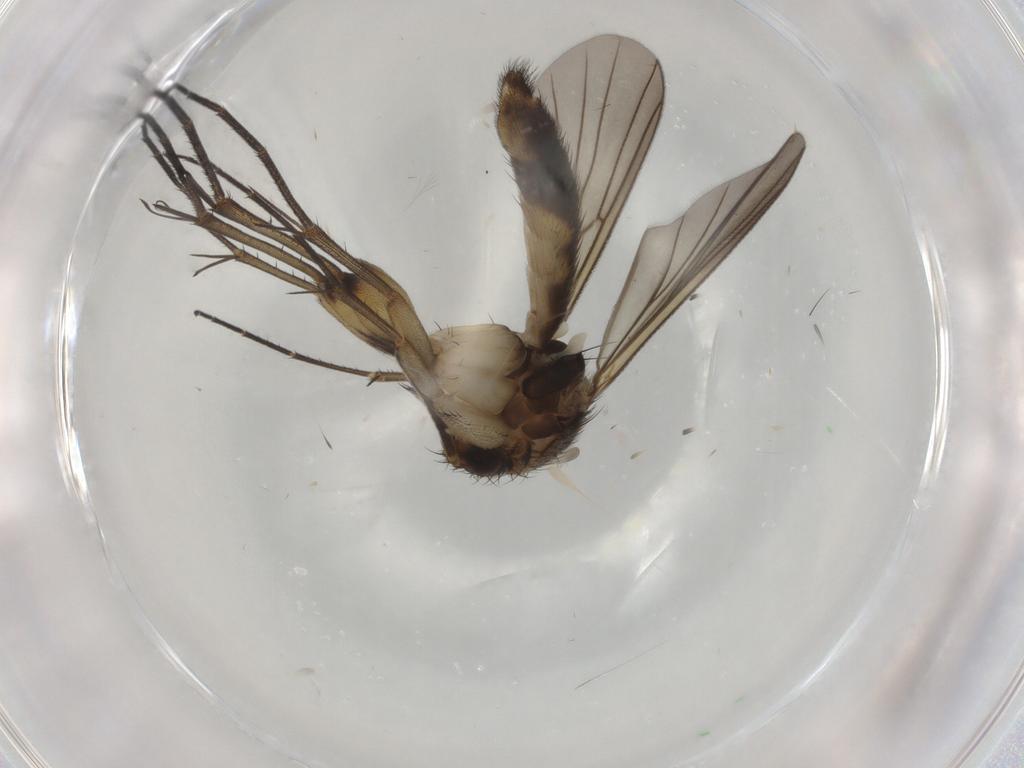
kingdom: Animalia
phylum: Arthropoda
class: Insecta
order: Diptera
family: Mycetophilidae
